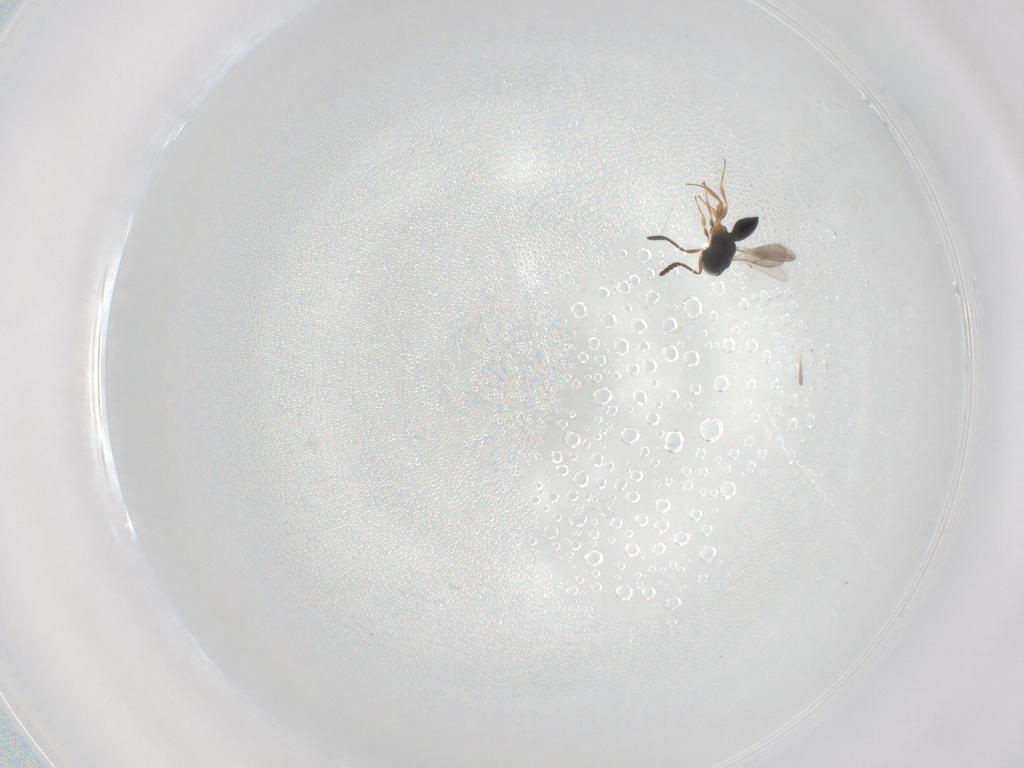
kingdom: Animalia
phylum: Arthropoda
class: Insecta
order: Hymenoptera
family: Scelionidae
